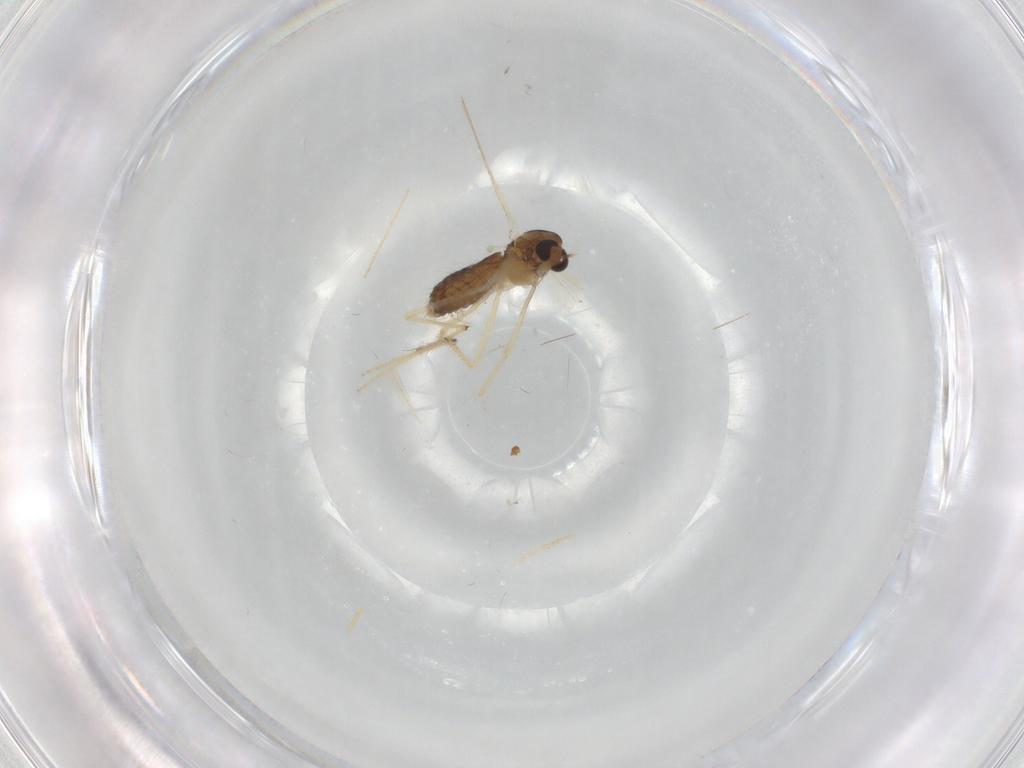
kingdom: Animalia
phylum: Arthropoda
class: Insecta
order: Diptera
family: Chironomidae
